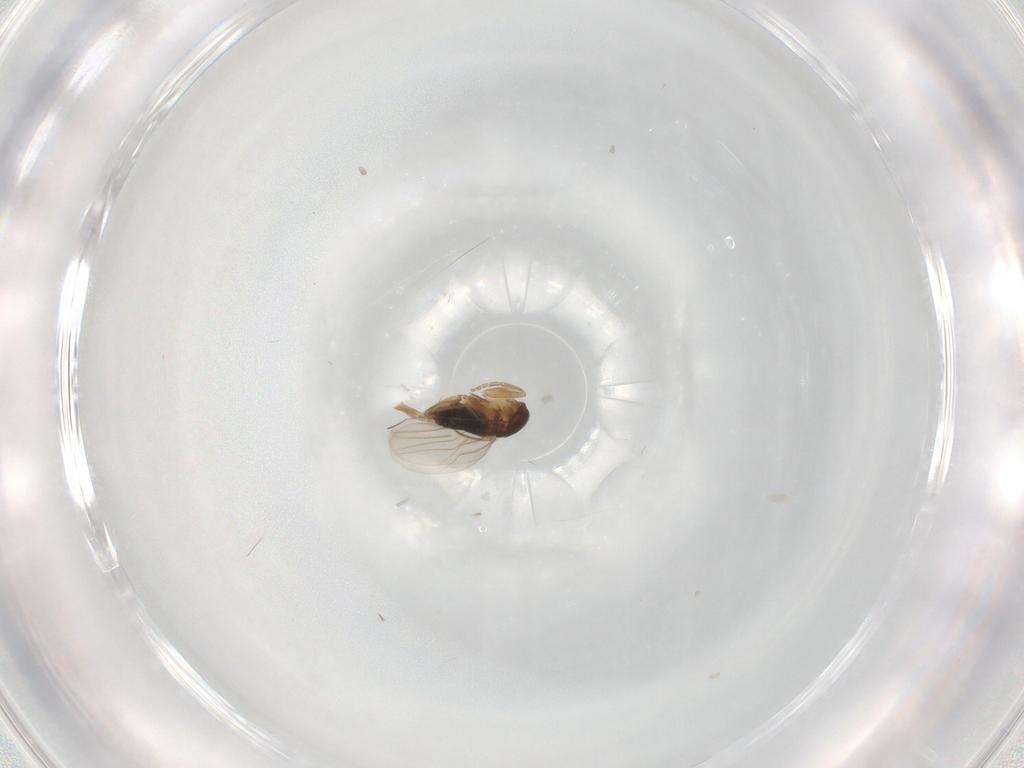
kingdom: Animalia
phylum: Arthropoda
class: Insecta
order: Diptera
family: Phoridae
